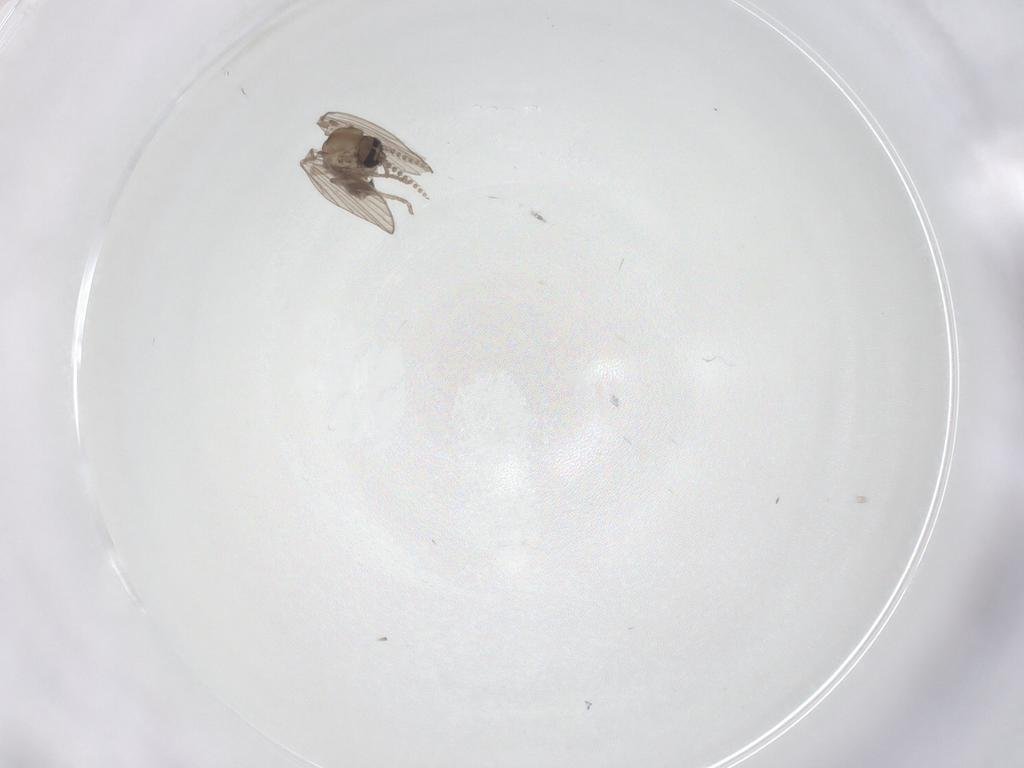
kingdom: Animalia
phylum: Arthropoda
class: Insecta
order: Diptera
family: Psychodidae
